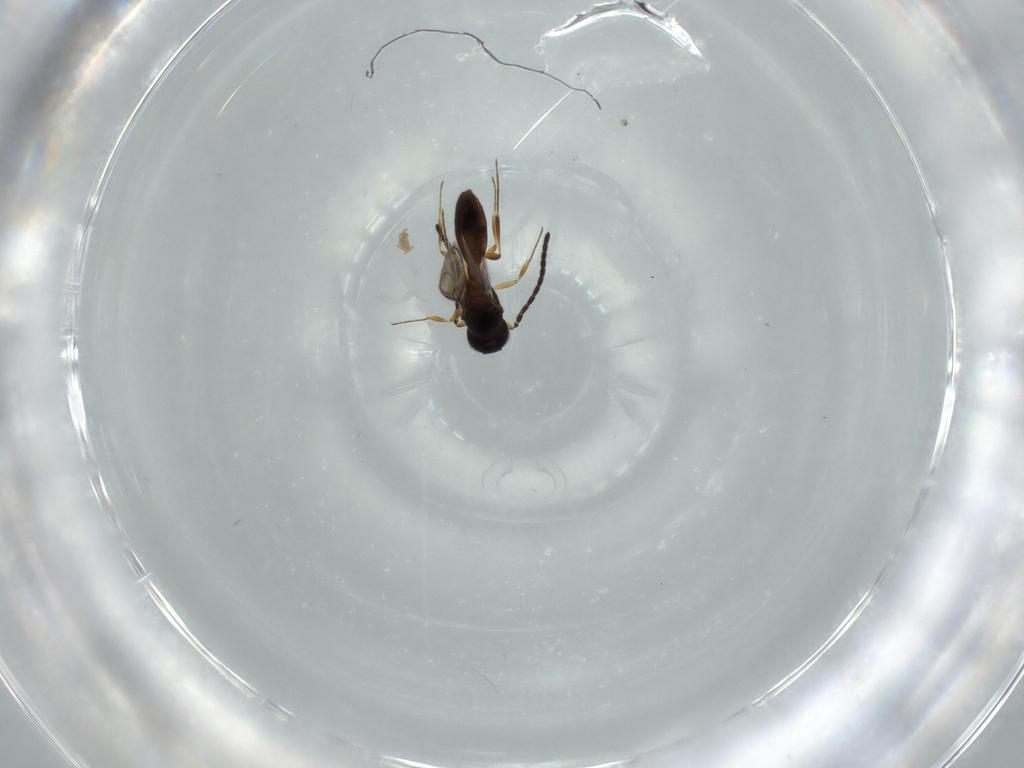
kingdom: Animalia
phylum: Arthropoda
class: Insecta
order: Hymenoptera
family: Scelionidae
